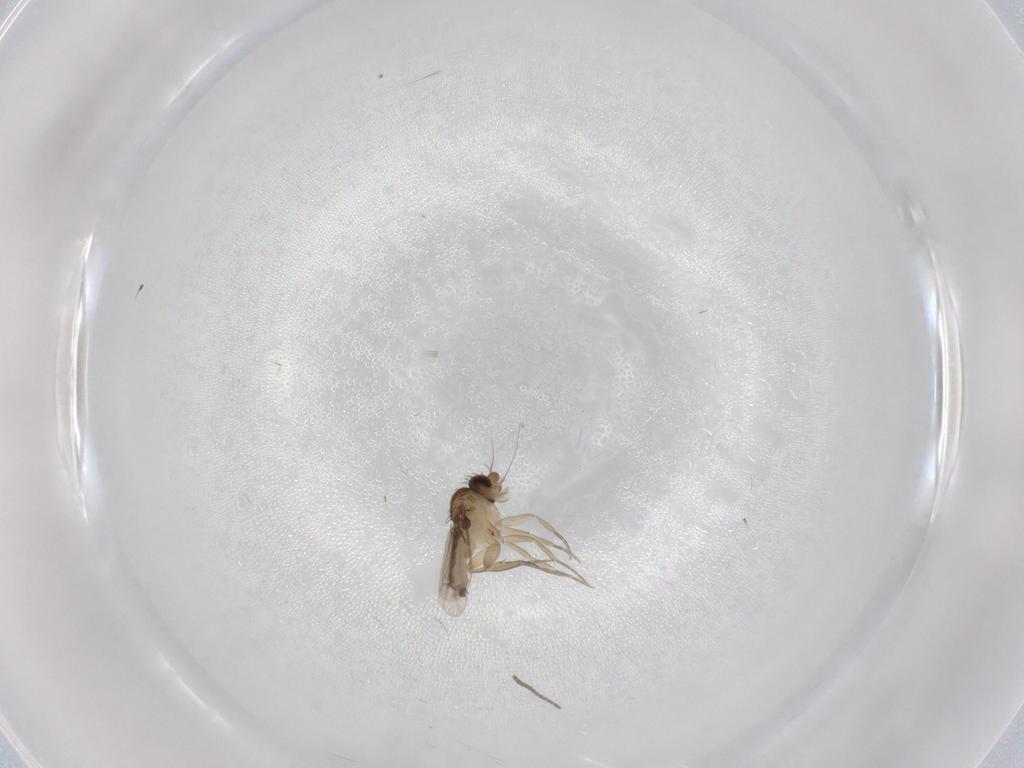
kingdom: Animalia
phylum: Arthropoda
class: Insecta
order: Diptera
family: Phoridae
